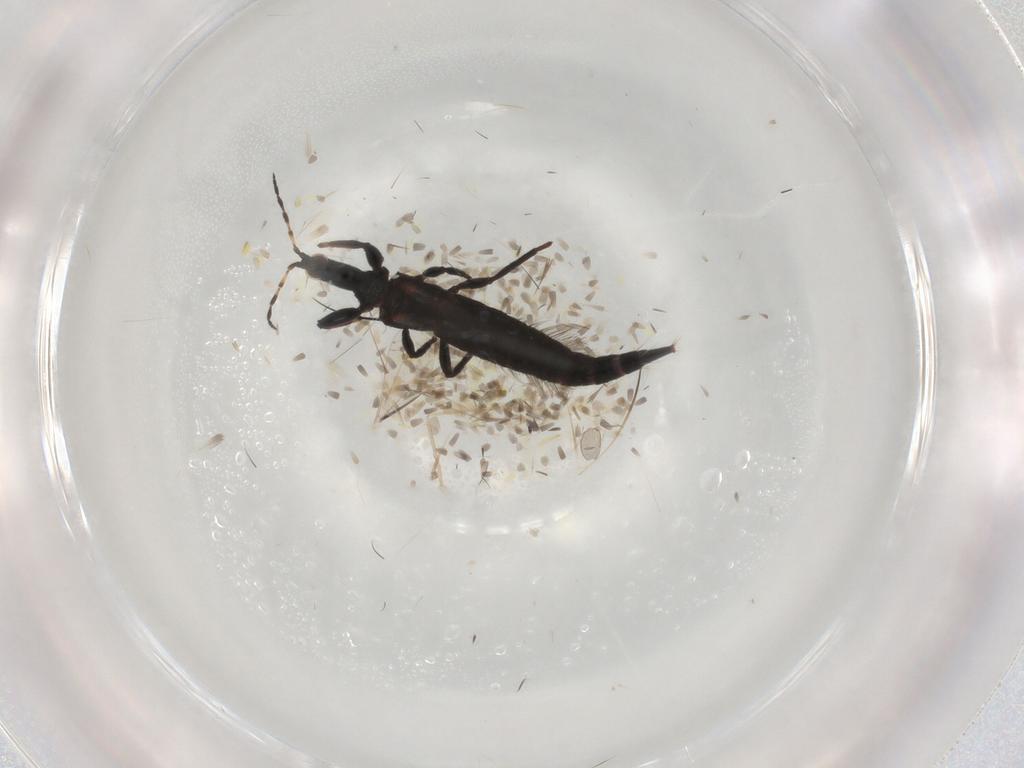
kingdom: Animalia
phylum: Arthropoda
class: Insecta
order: Thysanoptera
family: Phlaeothripidae
